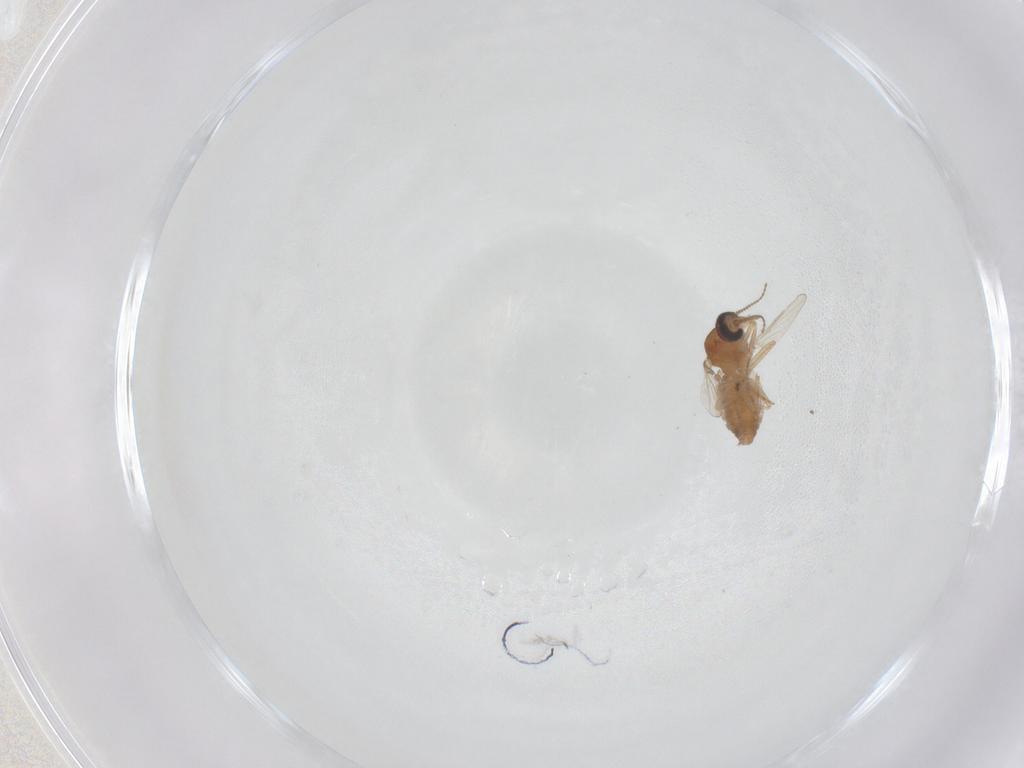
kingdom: Animalia
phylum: Arthropoda
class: Insecta
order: Diptera
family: Ceratopogonidae
